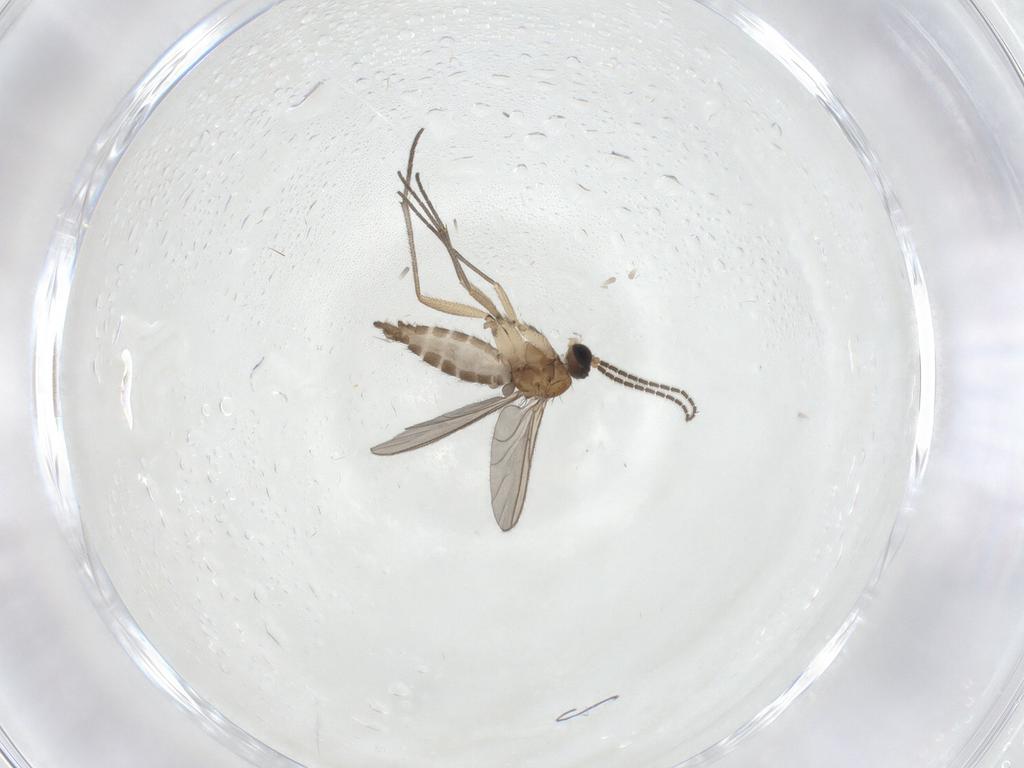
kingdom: Animalia
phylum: Arthropoda
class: Insecta
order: Diptera
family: Sciaridae
